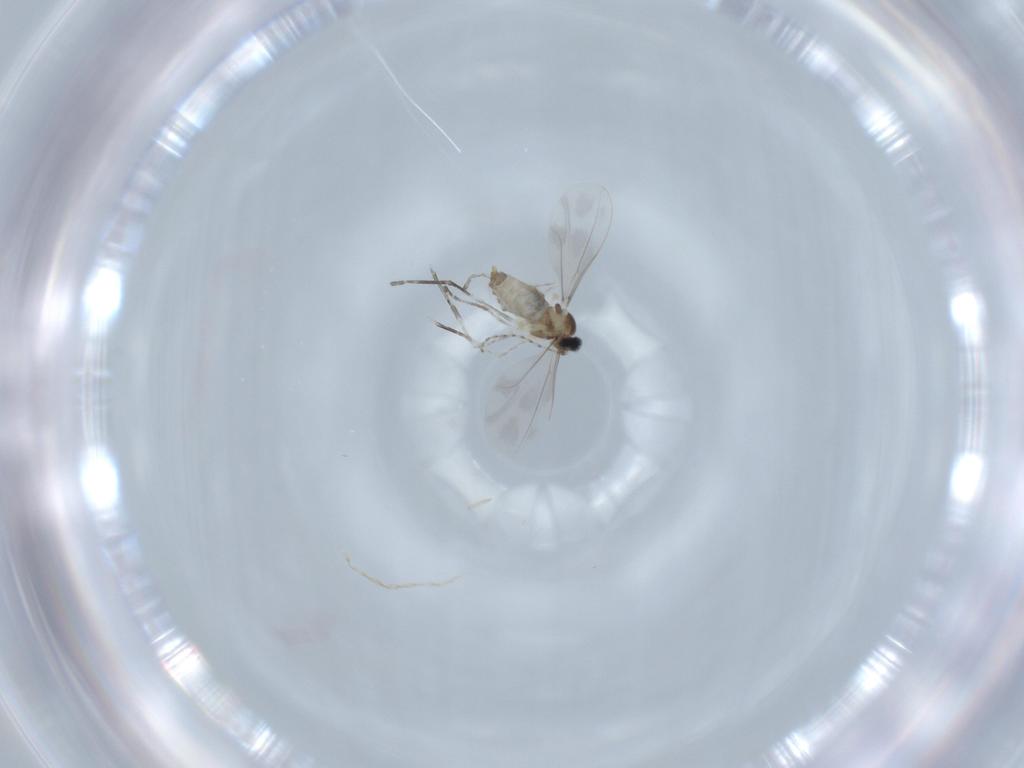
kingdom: Animalia
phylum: Arthropoda
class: Insecta
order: Diptera
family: Cecidomyiidae
